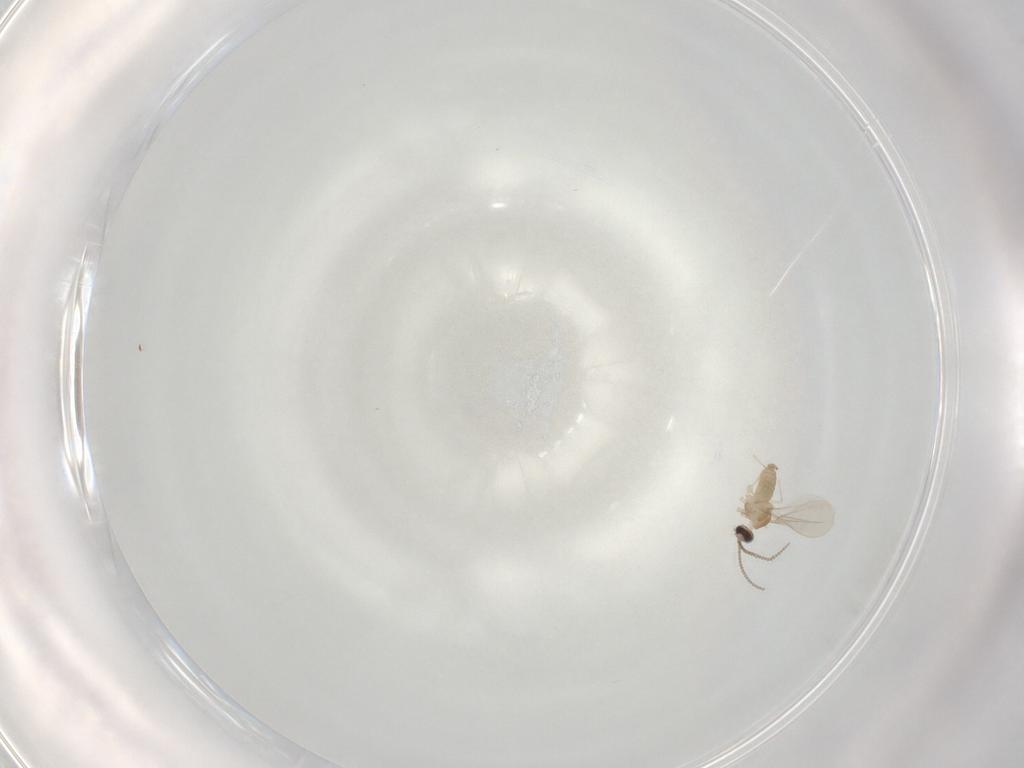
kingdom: Animalia
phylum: Arthropoda
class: Insecta
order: Diptera
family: Cecidomyiidae
